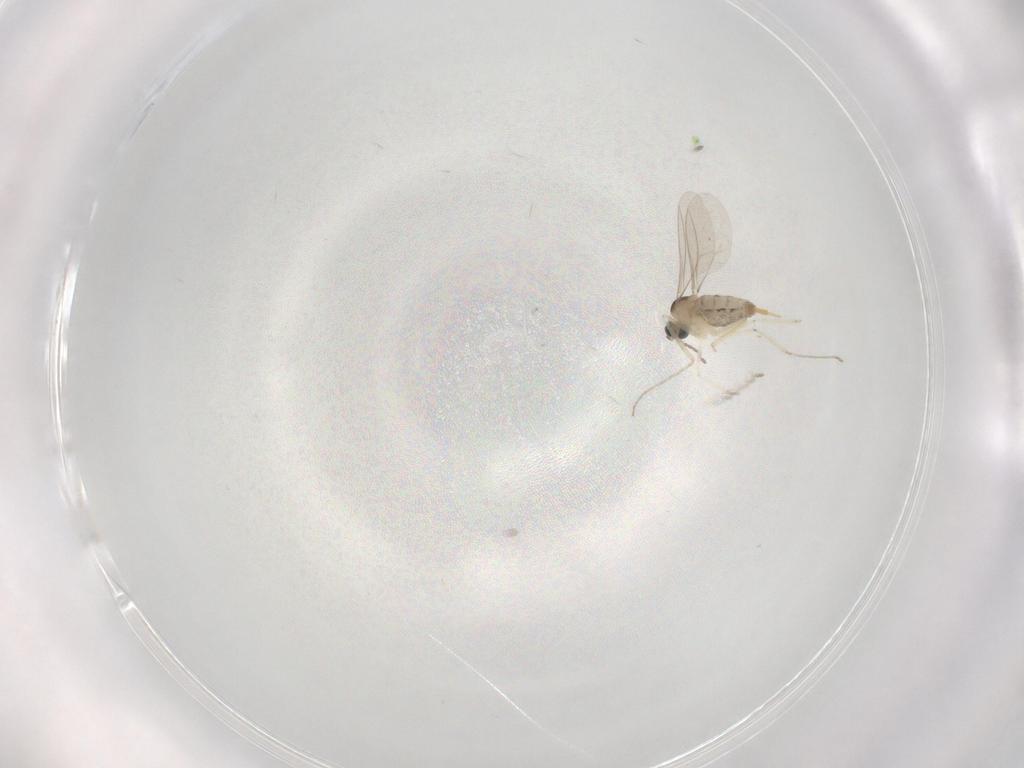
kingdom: Animalia
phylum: Arthropoda
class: Insecta
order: Diptera
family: Cecidomyiidae
